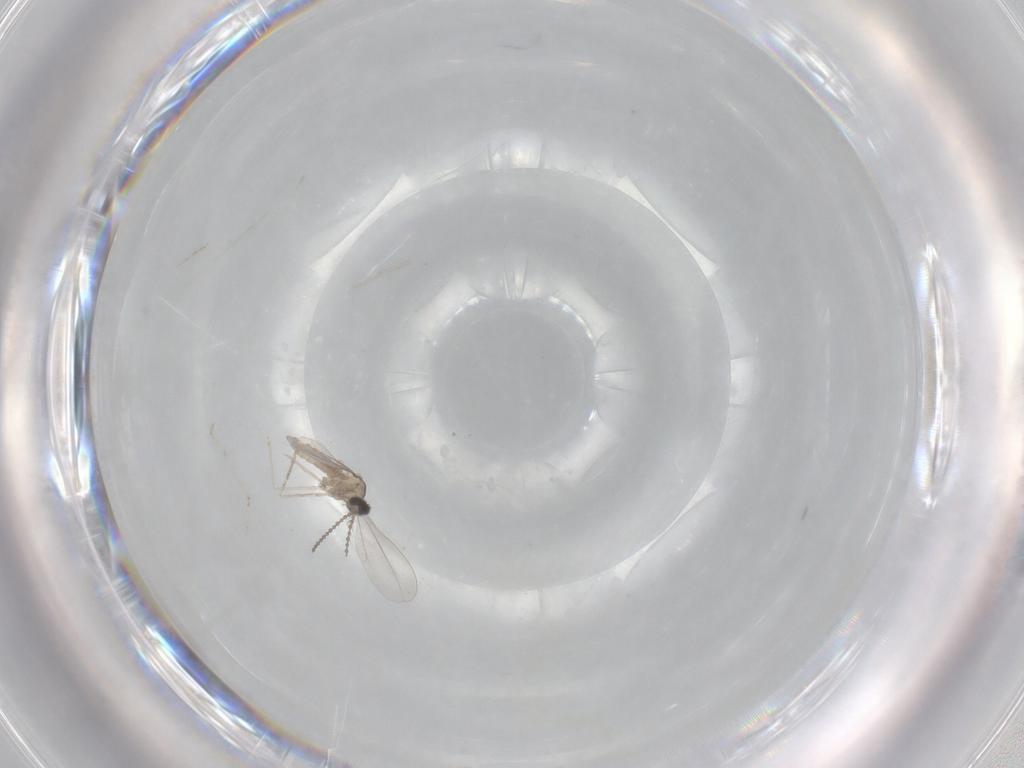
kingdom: Animalia
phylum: Arthropoda
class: Insecta
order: Diptera
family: Cecidomyiidae
